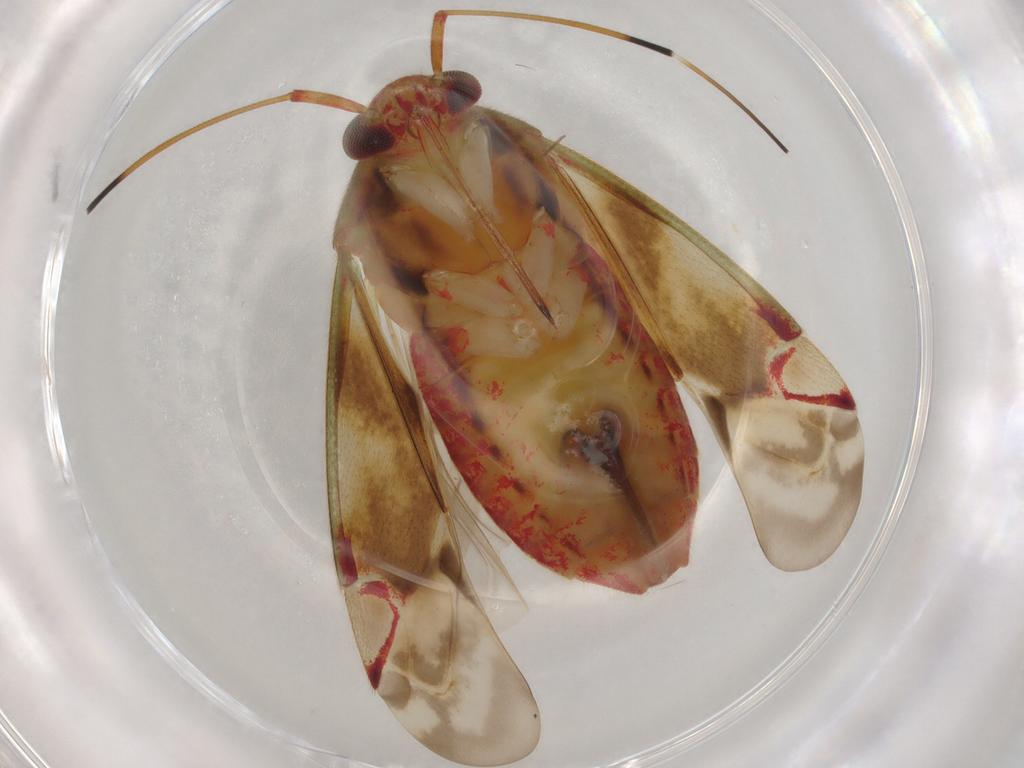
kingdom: Animalia
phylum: Arthropoda
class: Insecta
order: Hemiptera
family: Miridae
